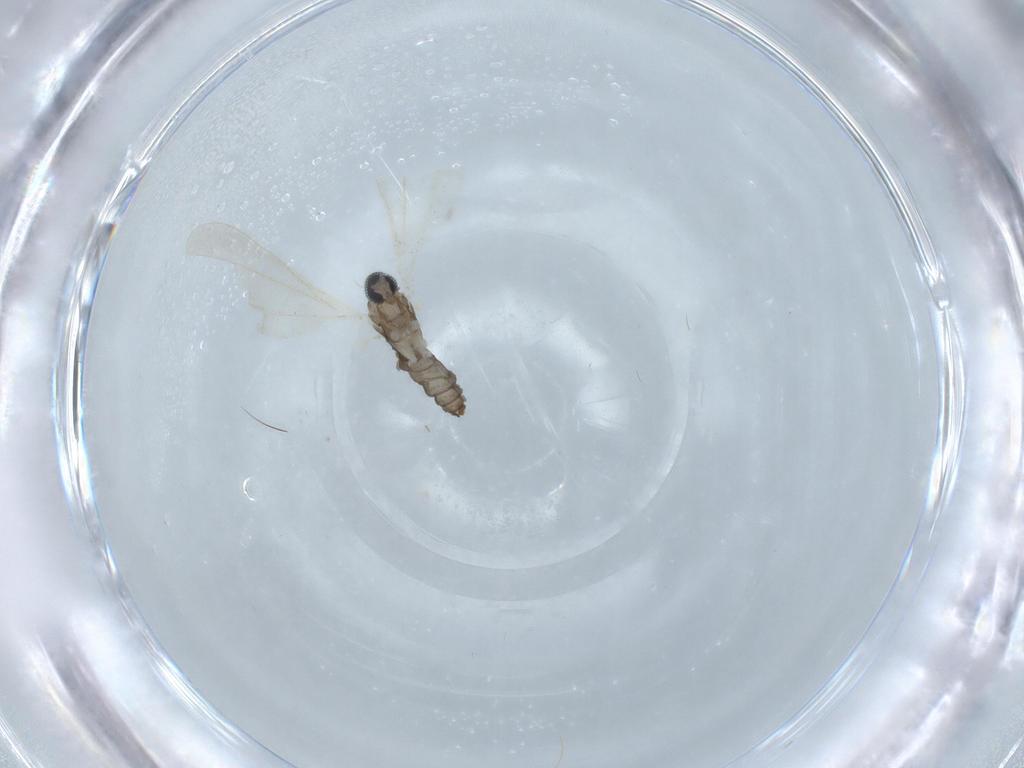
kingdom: Animalia
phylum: Arthropoda
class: Insecta
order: Diptera
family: Cecidomyiidae
